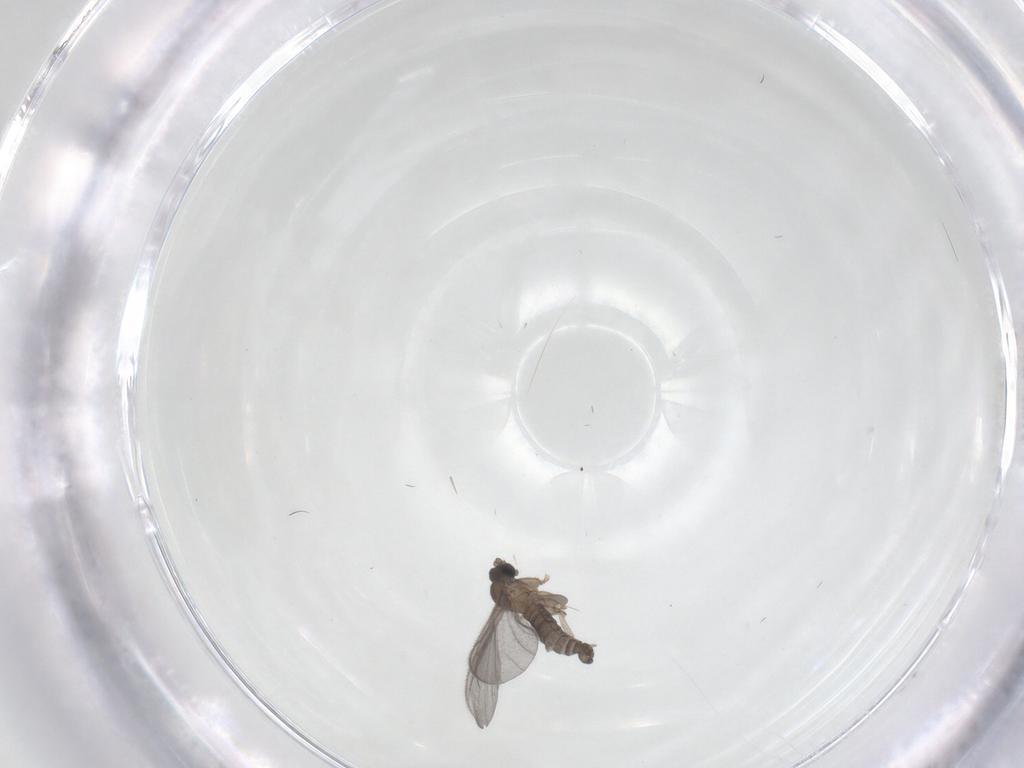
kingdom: Animalia
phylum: Arthropoda
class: Insecta
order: Diptera
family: Sciaridae
